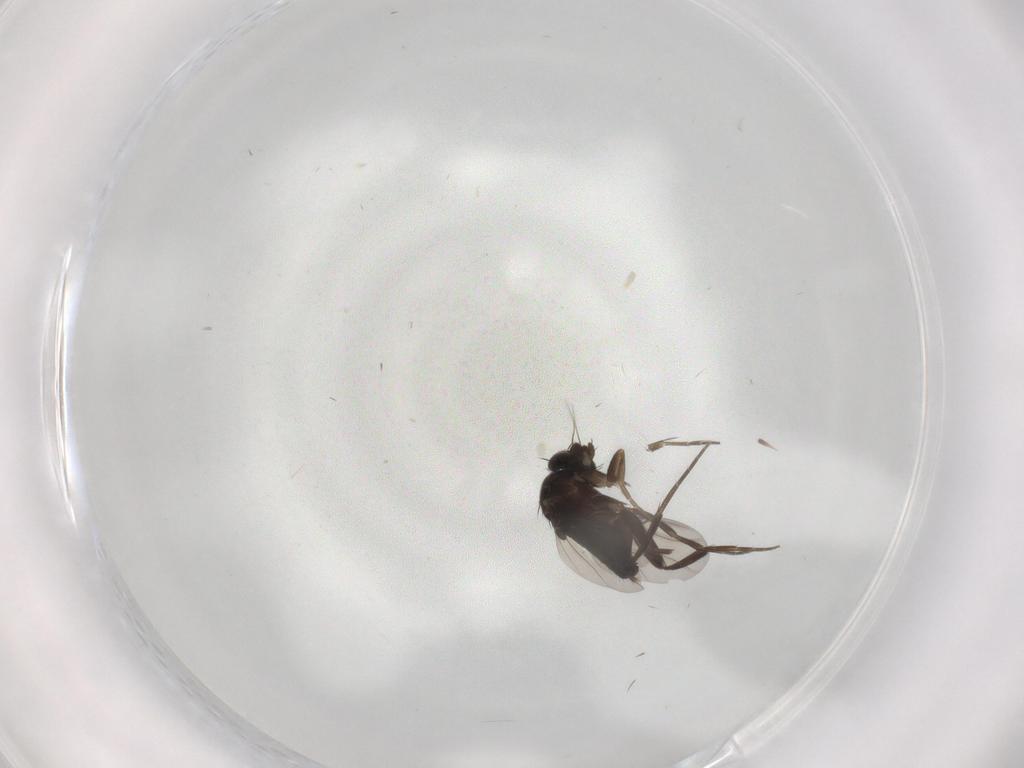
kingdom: Animalia
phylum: Arthropoda
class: Insecta
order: Diptera
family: Phoridae
